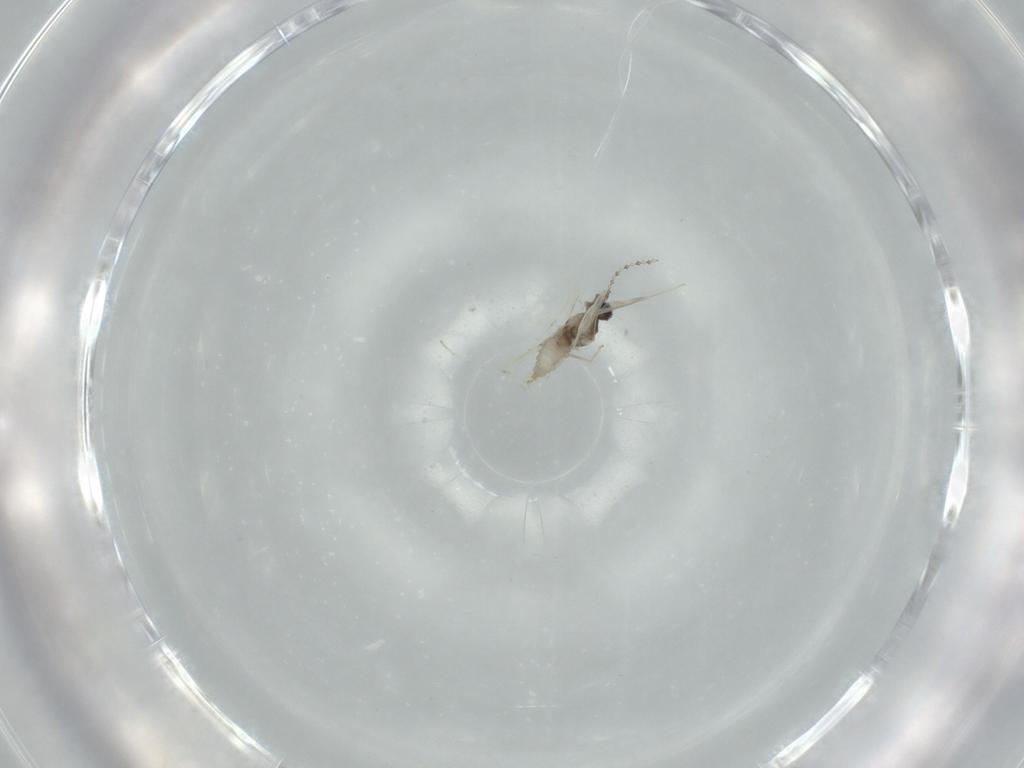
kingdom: Animalia
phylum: Arthropoda
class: Insecta
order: Diptera
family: Cecidomyiidae
